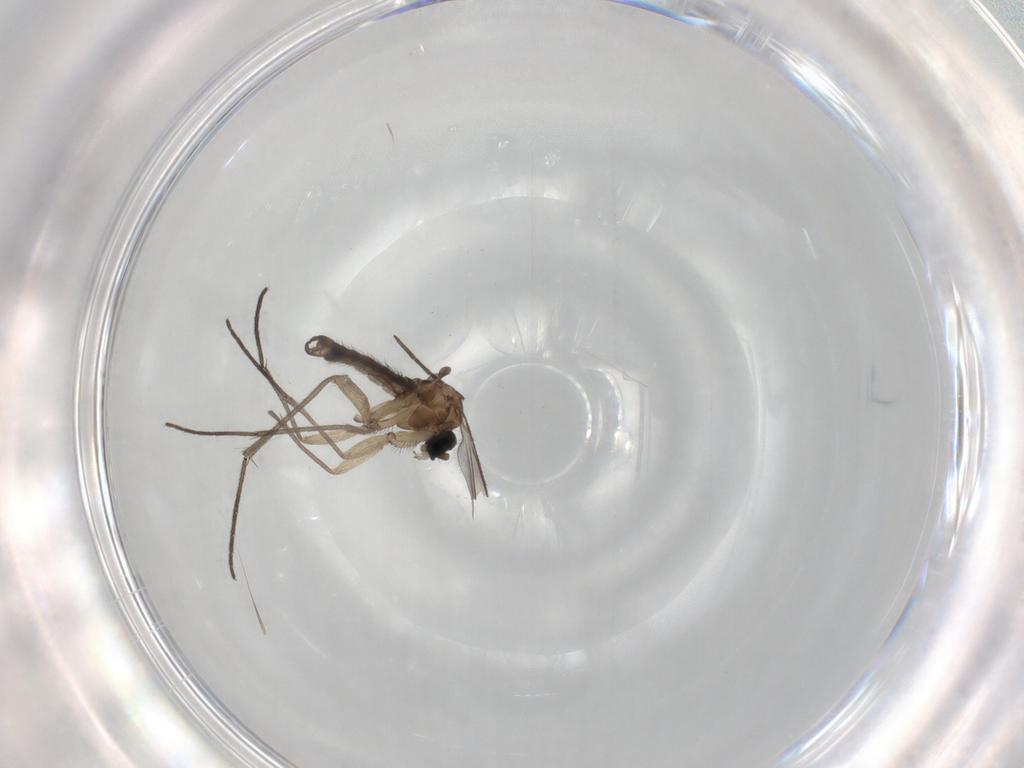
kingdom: Animalia
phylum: Arthropoda
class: Insecta
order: Diptera
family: Sciaridae
